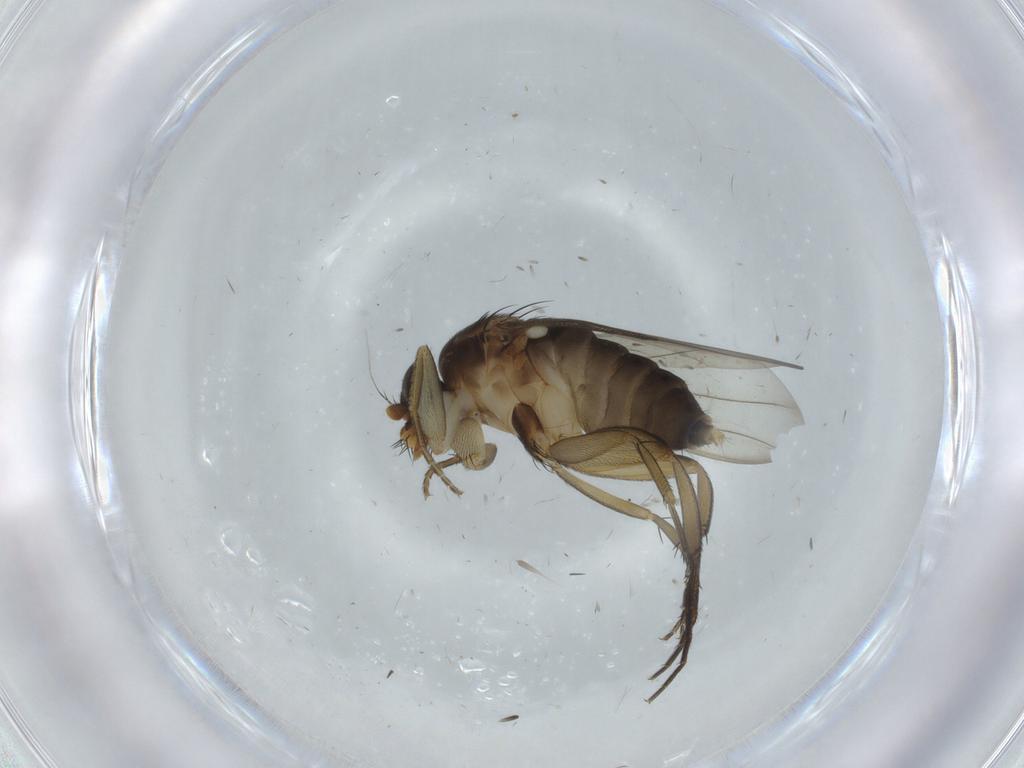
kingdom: Animalia
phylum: Arthropoda
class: Insecta
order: Diptera
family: Phoridae
